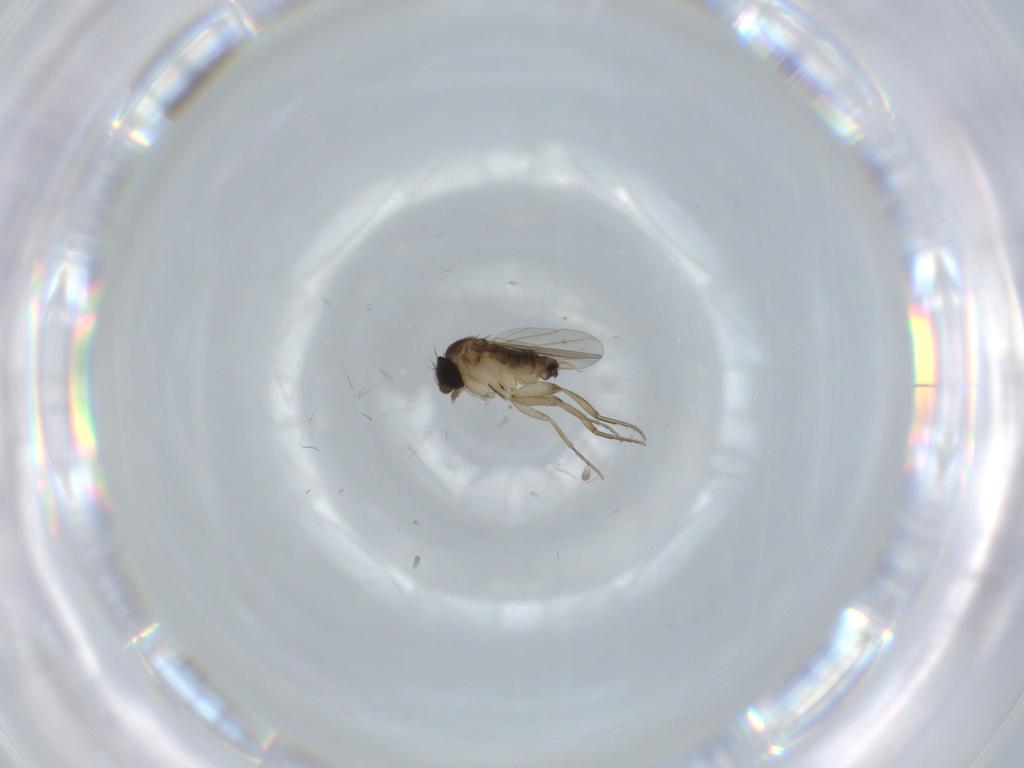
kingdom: Animalia
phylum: Arthropoda
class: Insecta
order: Diptera
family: Phoridae
